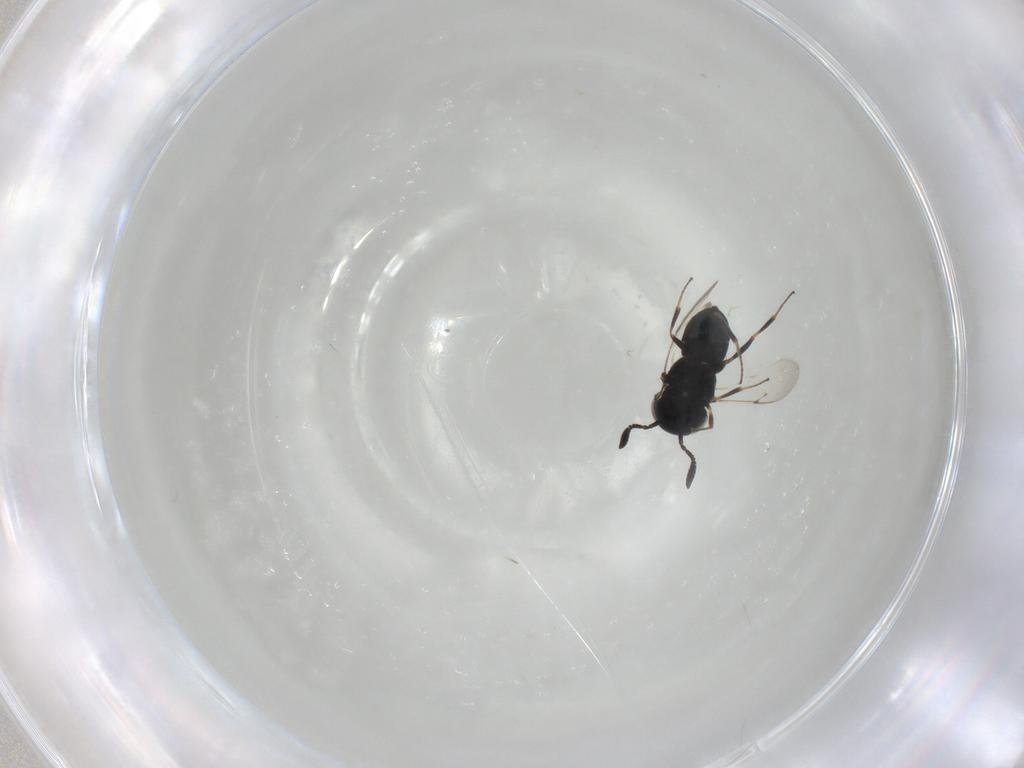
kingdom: Animalia
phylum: Arthropoda
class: Insecta
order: Hymenoptera
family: Scelionidae
